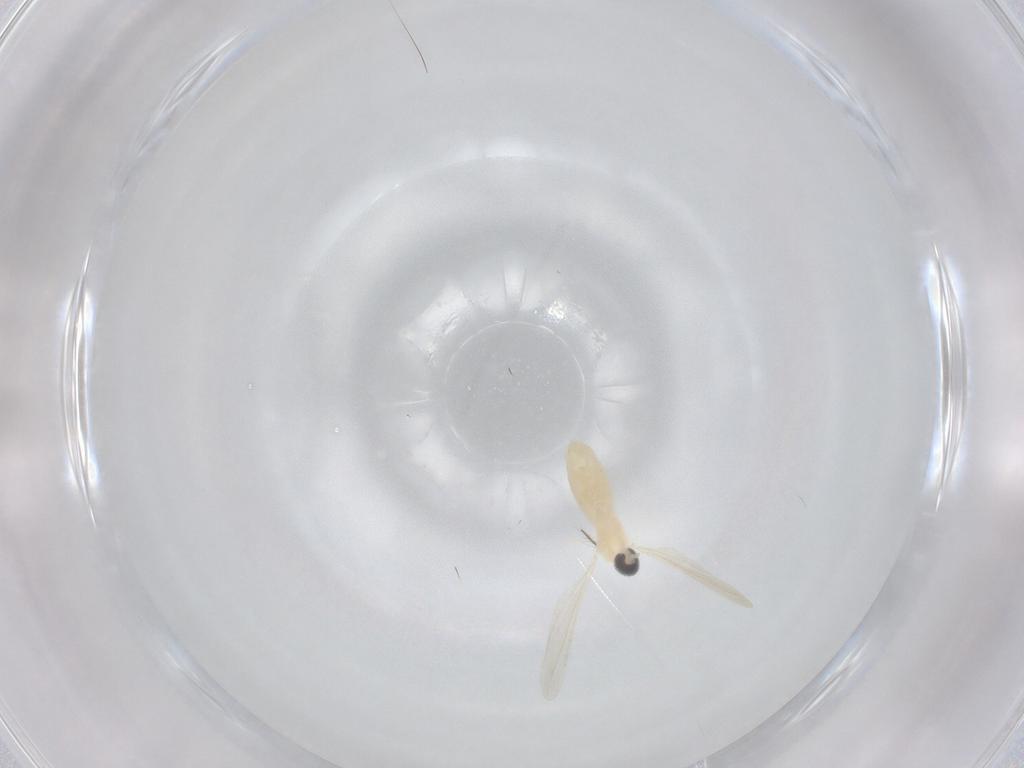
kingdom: Animalia
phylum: Arthropoda
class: Insecta
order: Diptera
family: Cecidomyiidae
